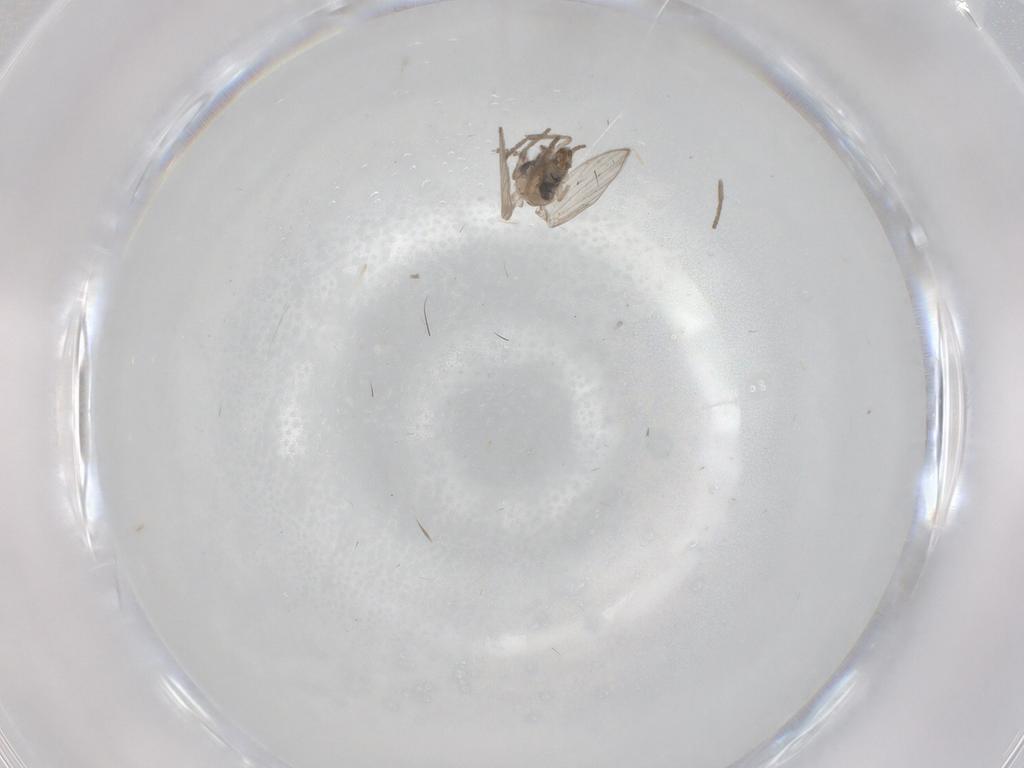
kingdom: Animalia
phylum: Arthropoda
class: Insecta
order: Diptera
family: Psychodidae
